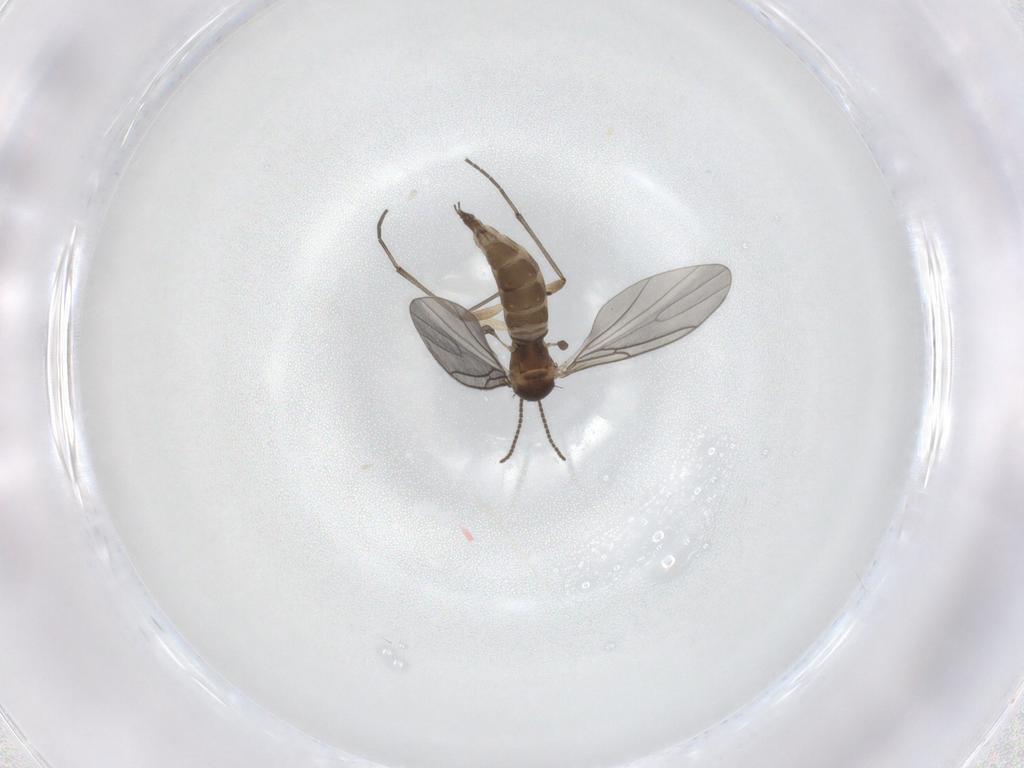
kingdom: Animalia
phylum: Arthropoda
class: Insecta
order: Diptera
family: Sciaridae
